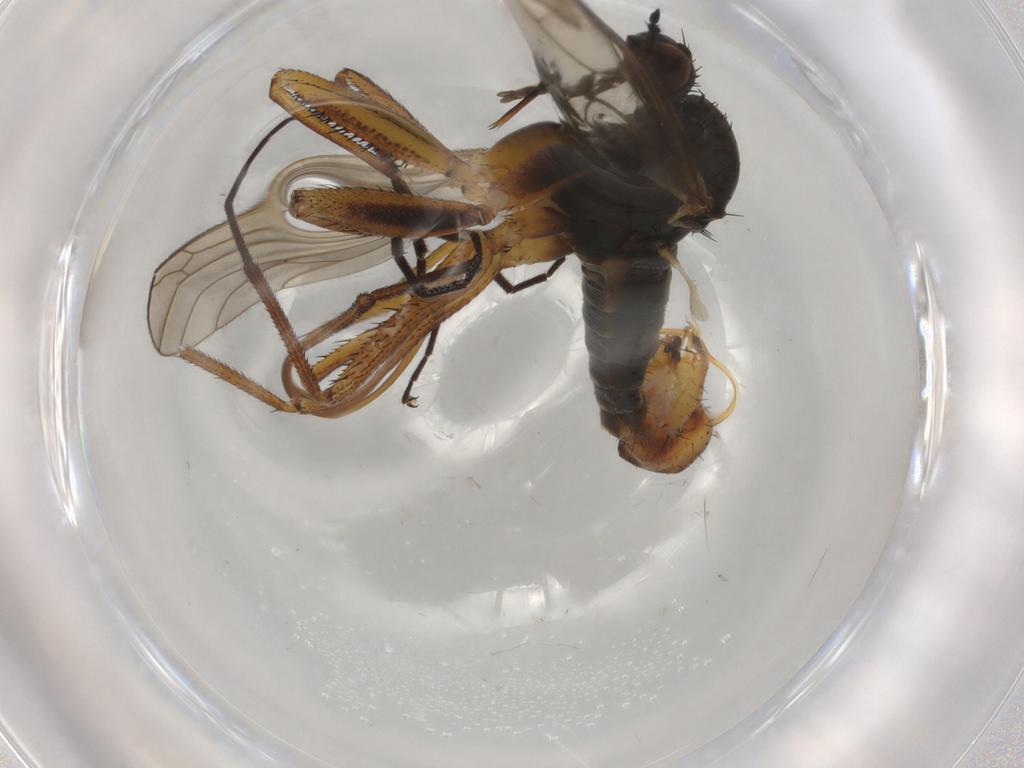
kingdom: Animalia
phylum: Arthropoda
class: Insecta
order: Diptera
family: Empididae
